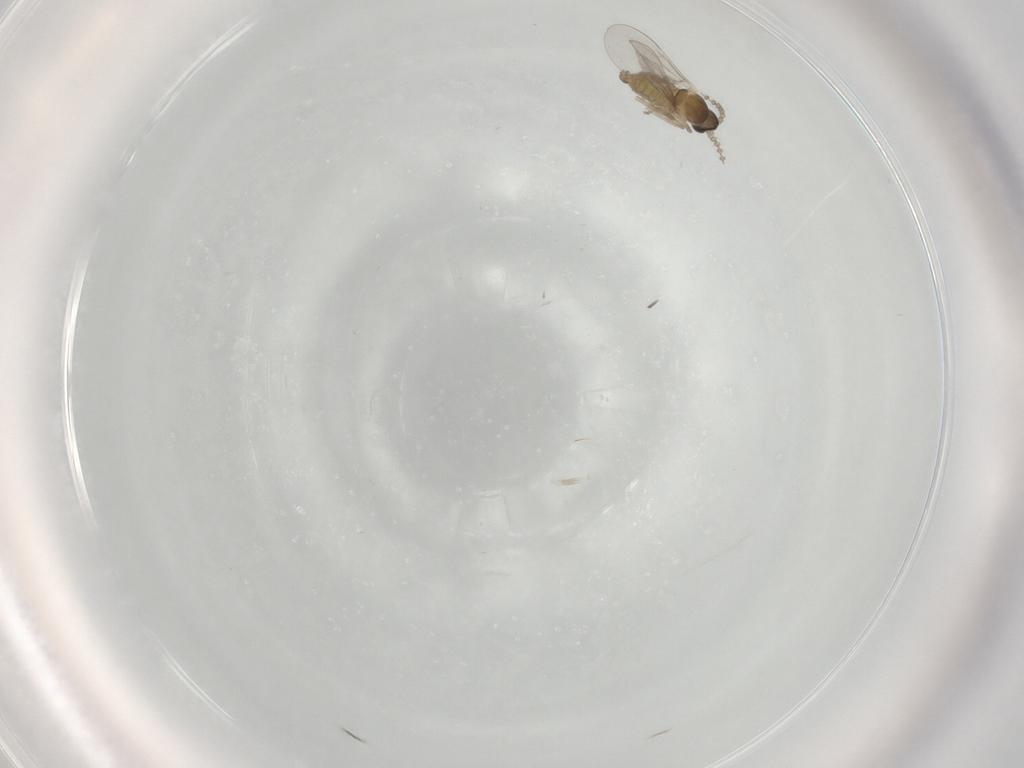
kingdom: Animalia
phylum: Arthropoda
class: Insecta
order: Diptera
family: Cecidomyiidae
